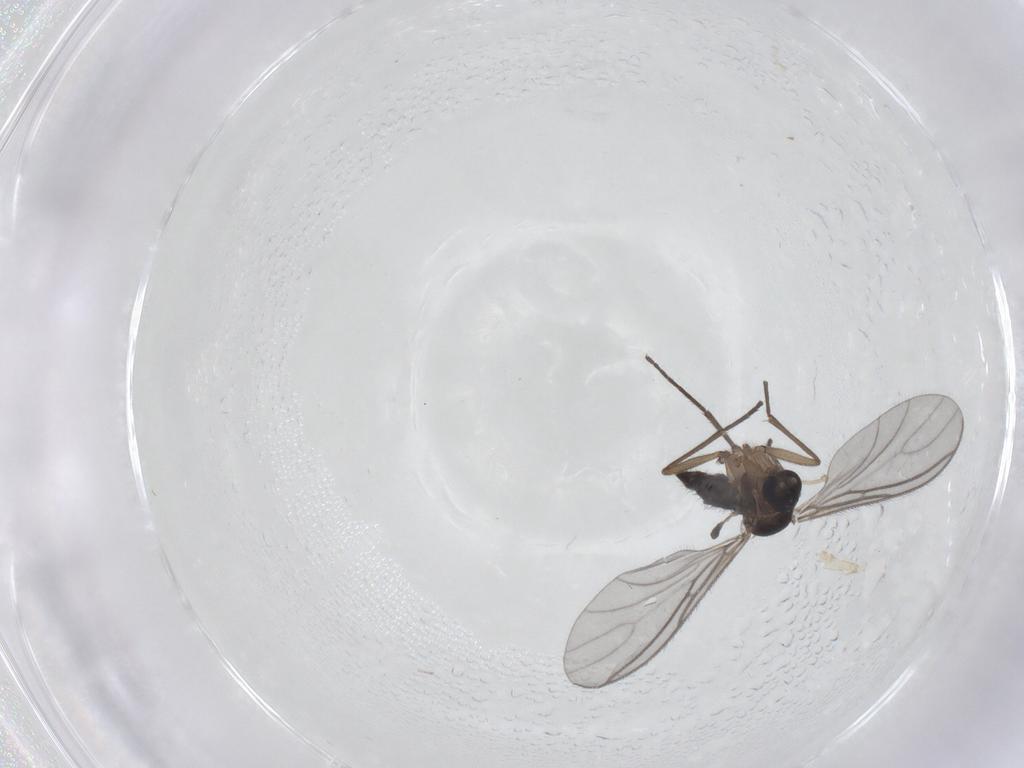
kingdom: Animalia
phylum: Arthropoda
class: Insecta
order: Diptera
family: Sciaridae
